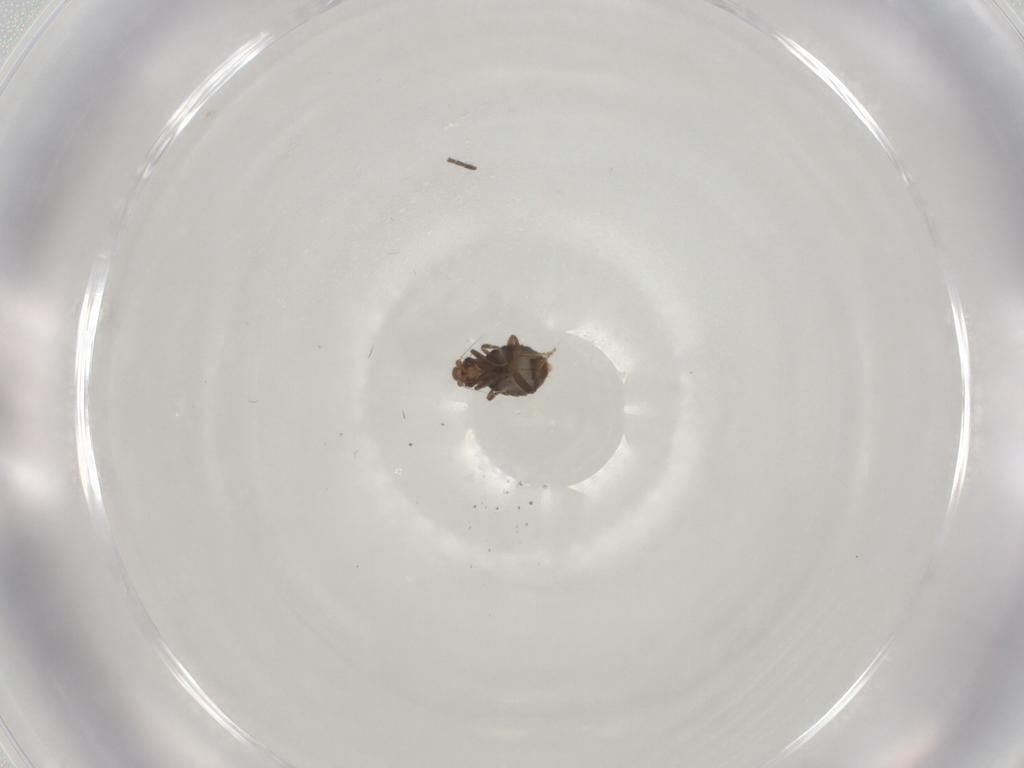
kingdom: Animalia
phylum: Arthropoda
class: Insecta
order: Diptera
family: Phoridae
